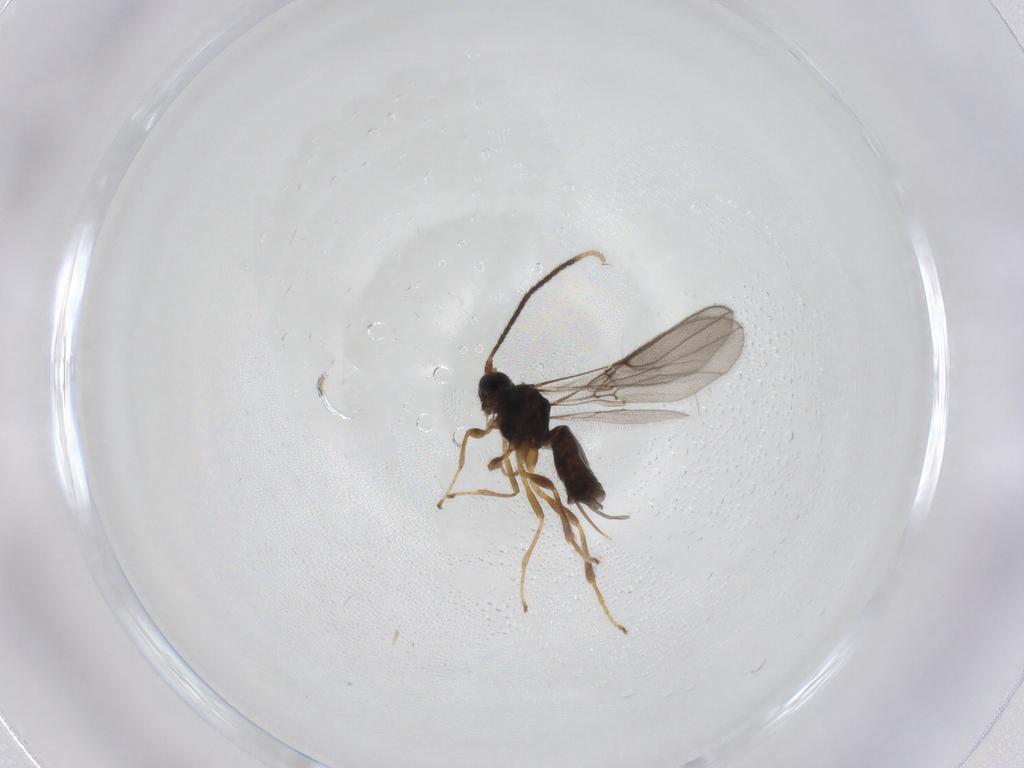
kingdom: Animalia
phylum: Arthropoda
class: Insecta
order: Hymenoptera
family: Braconidae
